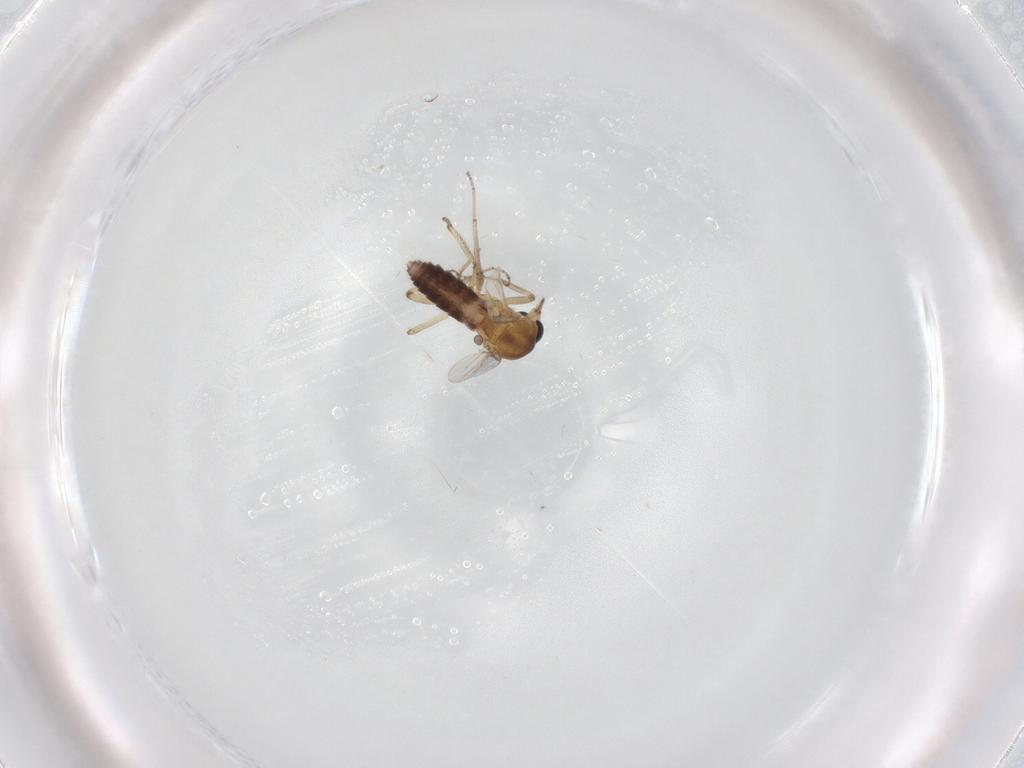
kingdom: Animalia
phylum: Arthropoda
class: Insecta
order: Diptera
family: Ceratopogonidae
